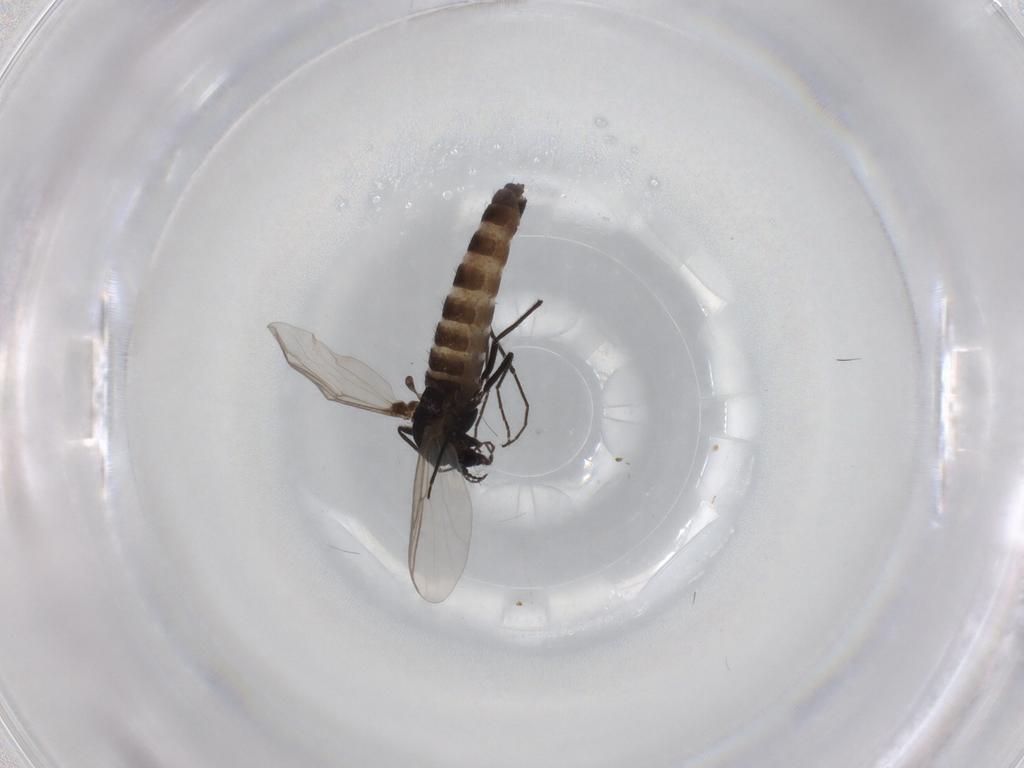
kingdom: Animalia
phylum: Arthropoda
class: Insecta
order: Diptera
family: Chironomidae
